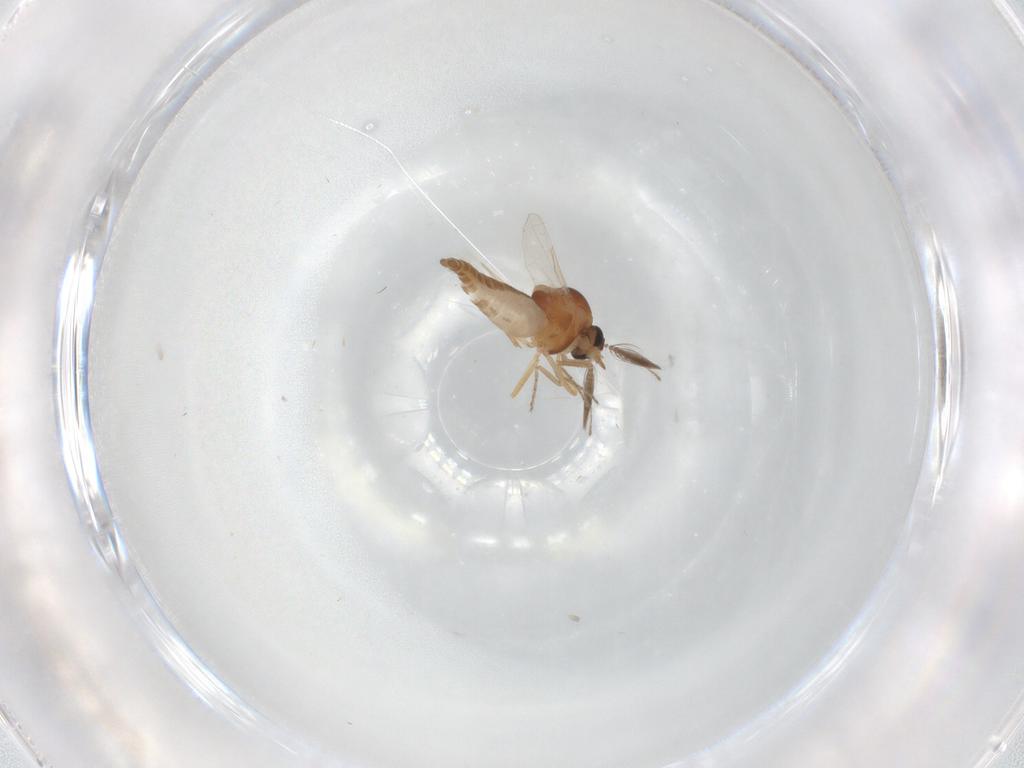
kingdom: Animalia
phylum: Arthropoda
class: Insecta
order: Diptera
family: Ceratopogonidae
